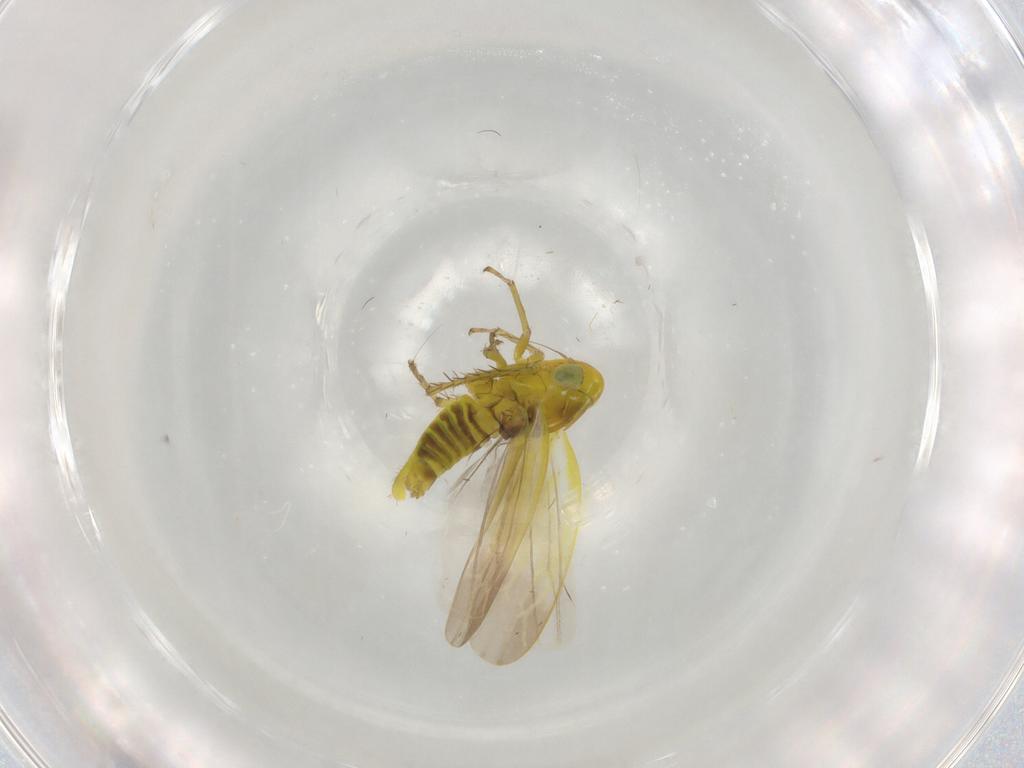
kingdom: Animalia
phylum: Arthropoda
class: Insecta
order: Hemiptera
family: Cicadellidae
